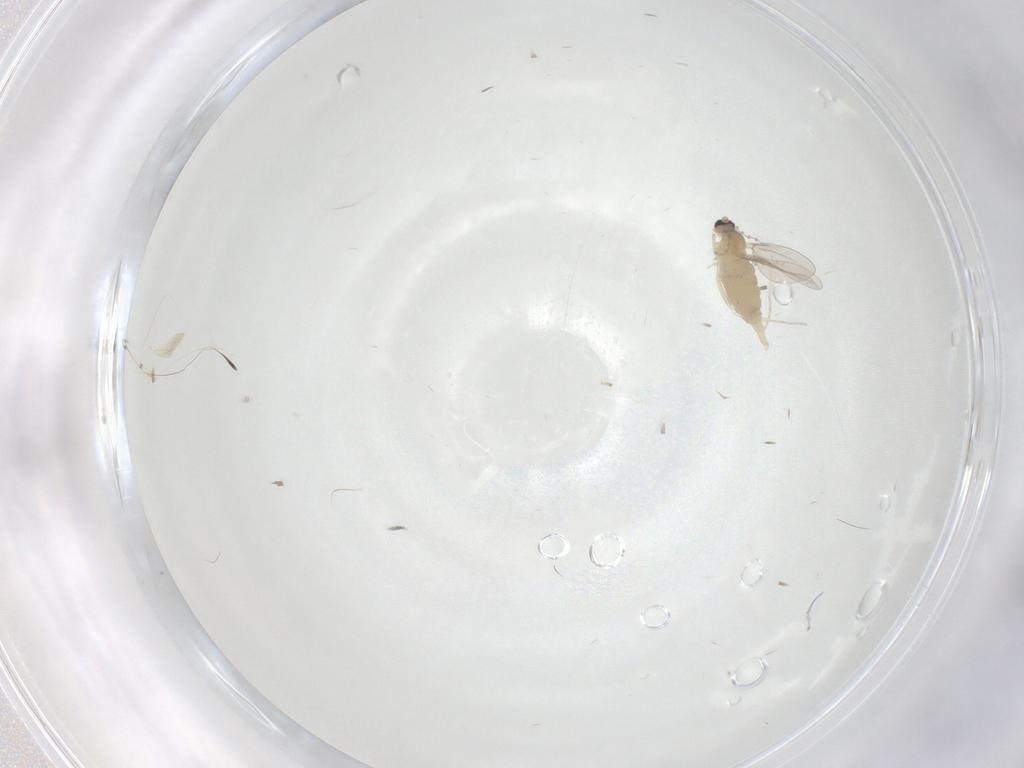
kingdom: Animalia
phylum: Arthropoda
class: Insecta
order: Diptera
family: Cecidomyiidae
